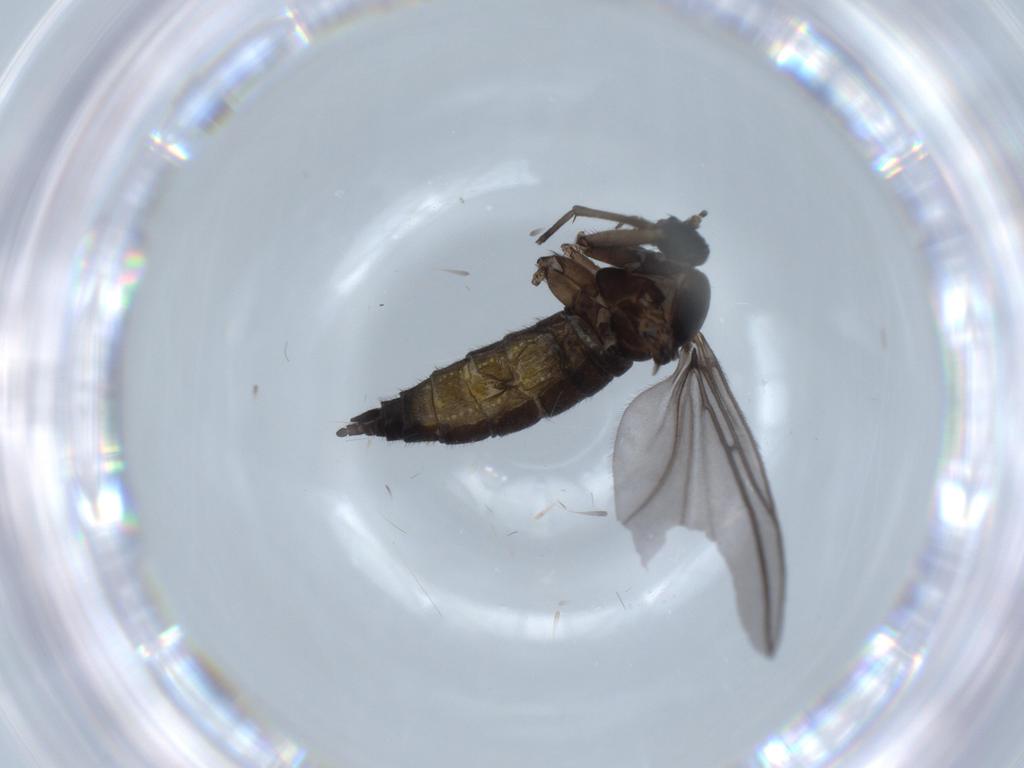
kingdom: Animalia
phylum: Arthropoda
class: Insecta
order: Diptera
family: Sciaridae
